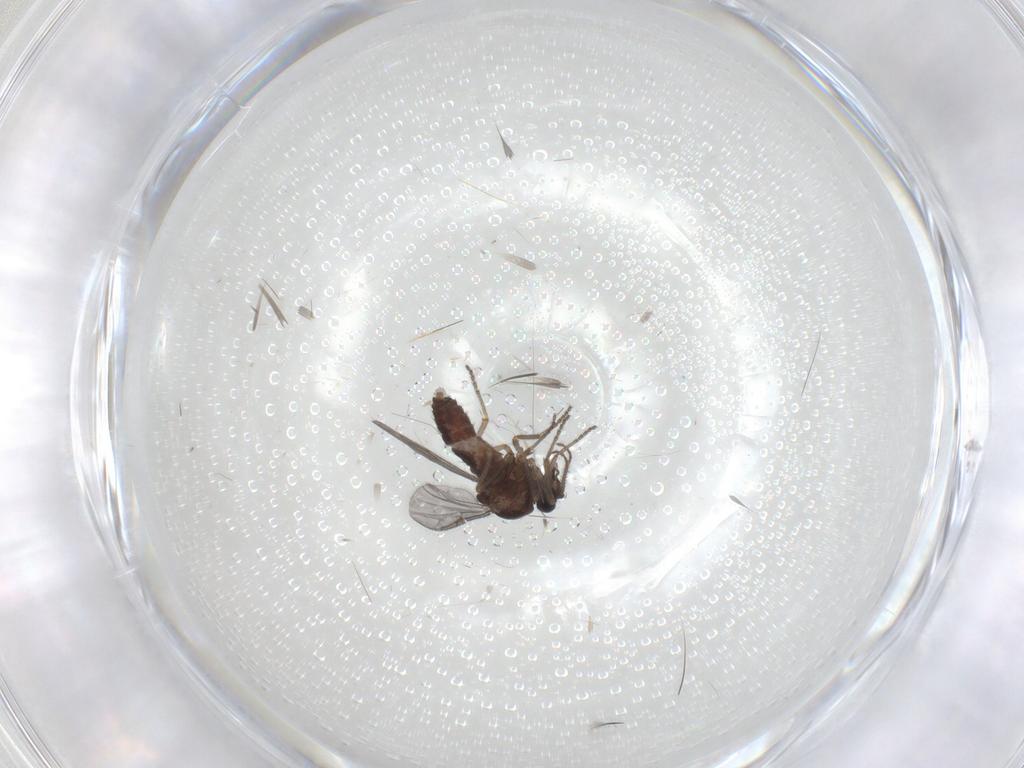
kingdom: Animalia
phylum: Arthropoda
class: Insecta
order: Diptera
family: Ceratopogonidae
